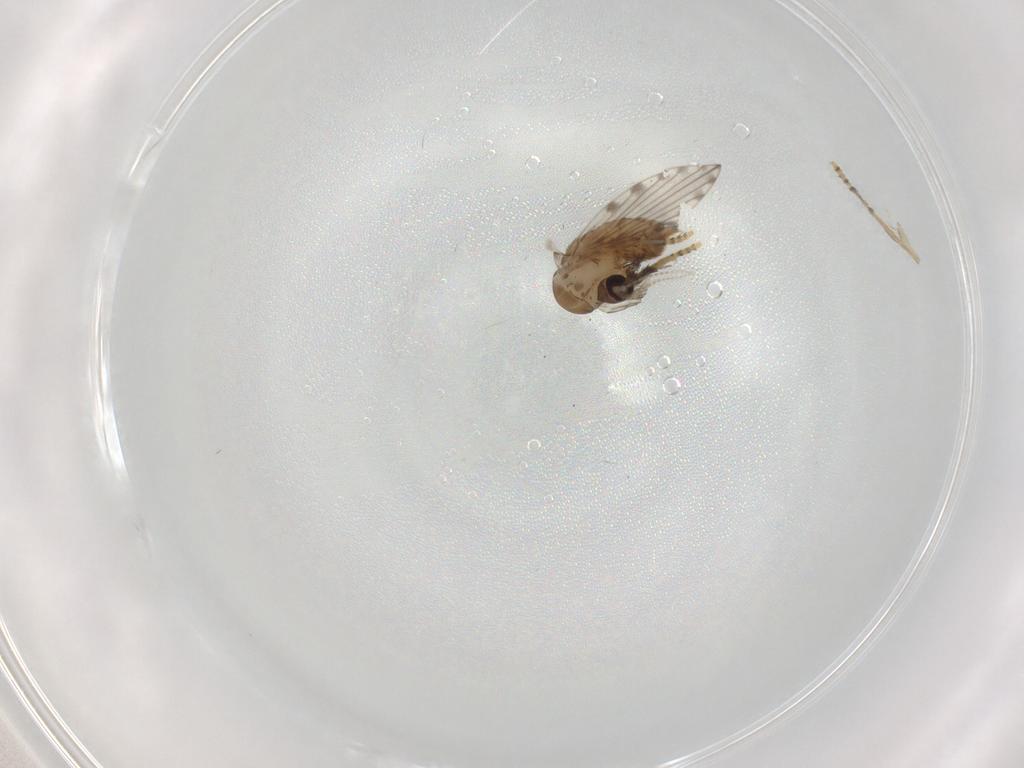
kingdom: Animalia
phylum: Arthropoda
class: Insecta
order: Diptera
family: Psychodidae
